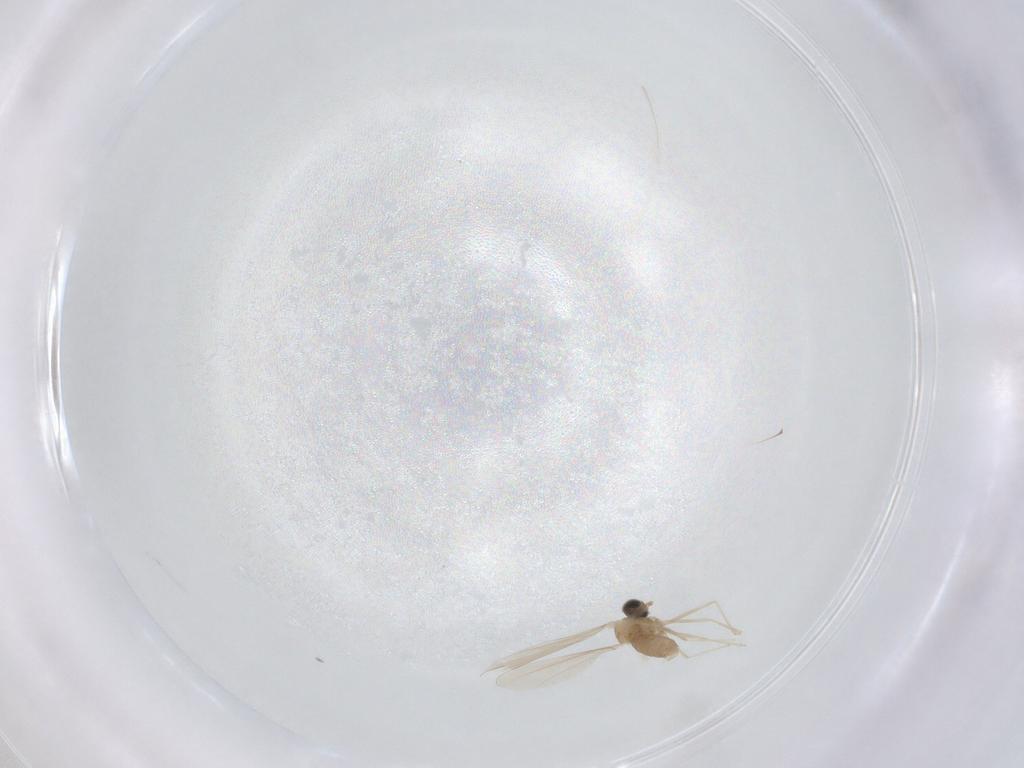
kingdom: Animalia
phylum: Arthropoda
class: Insecta
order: Diptera
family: Cecidomyiidae
